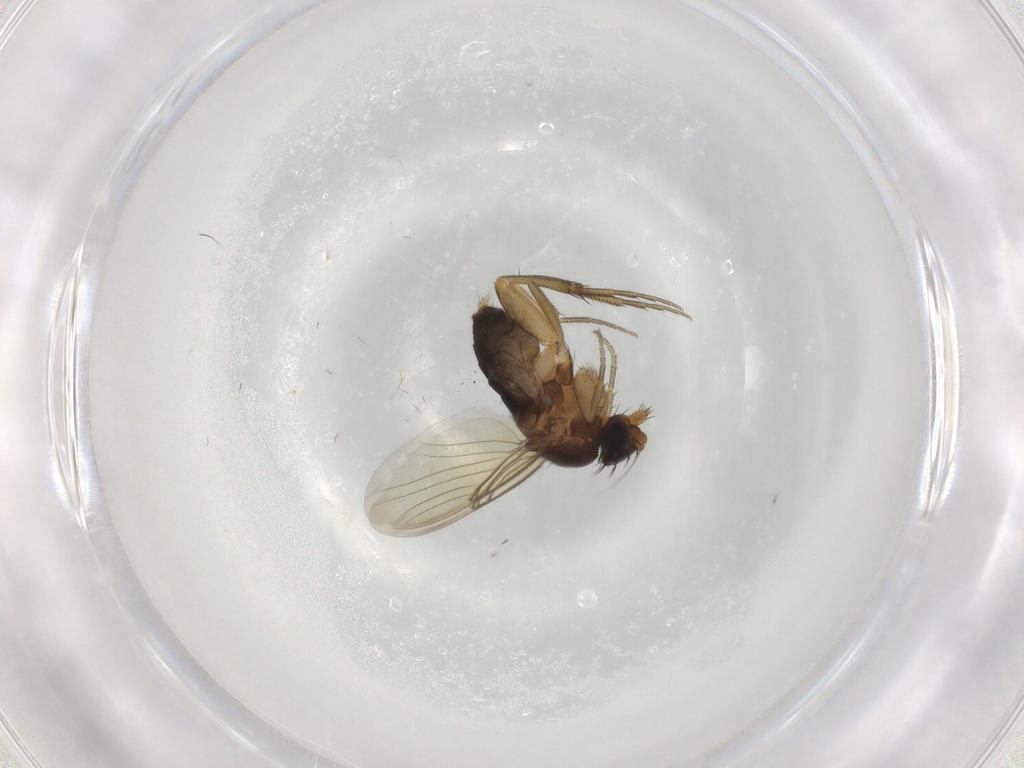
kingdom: Animalia
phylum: Arthropoda
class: Insecta
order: Diptera
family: Phoridae
